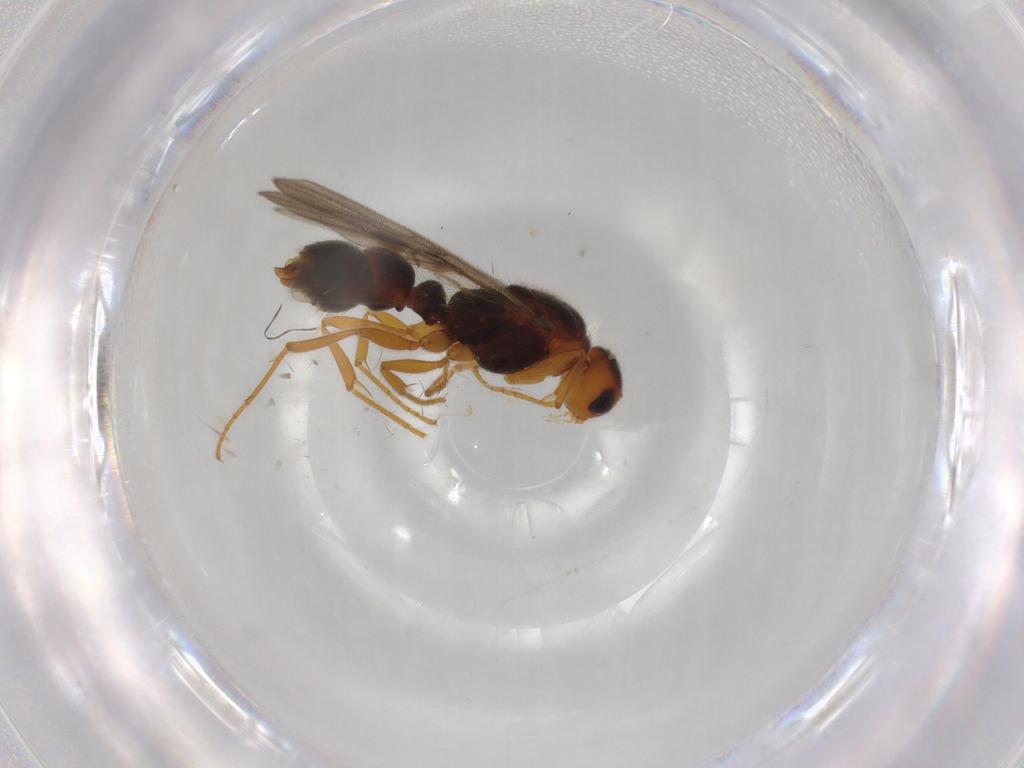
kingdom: Animalia
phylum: Arthropoda
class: Insecta
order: Hymenoptera
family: Formicidae
